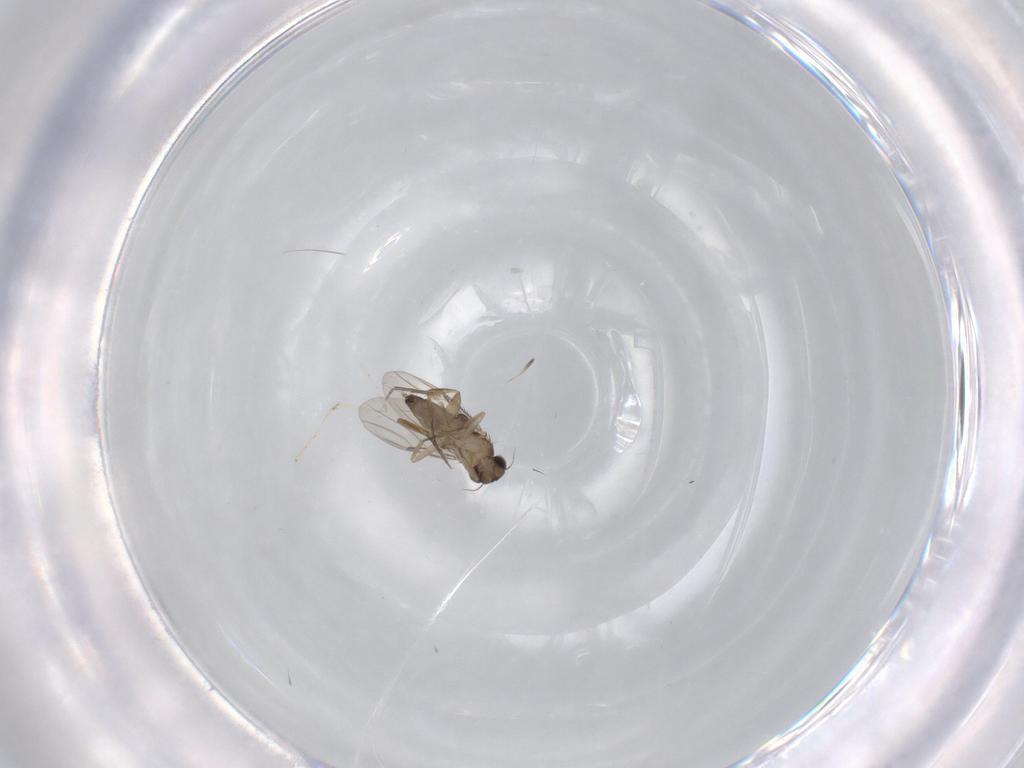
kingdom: Animalia
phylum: Arthropoda
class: Insecta
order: Diptera
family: Phoridae
